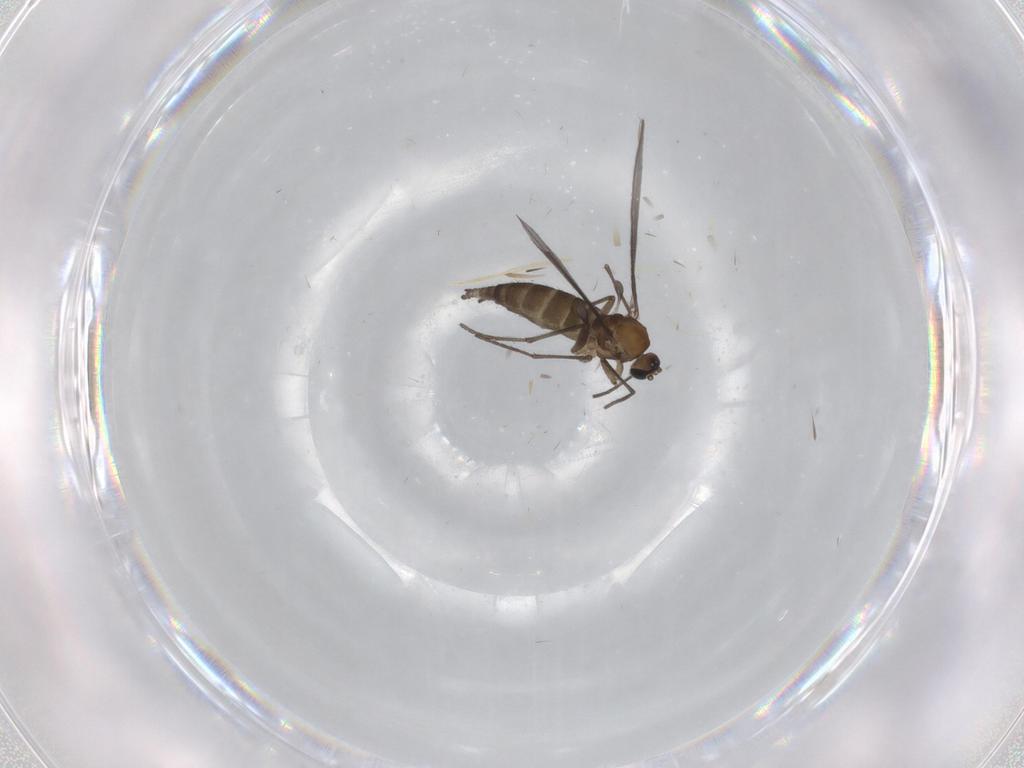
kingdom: Animalia
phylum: Arthropoda
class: Insecta
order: Diptera
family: Sciaridae
